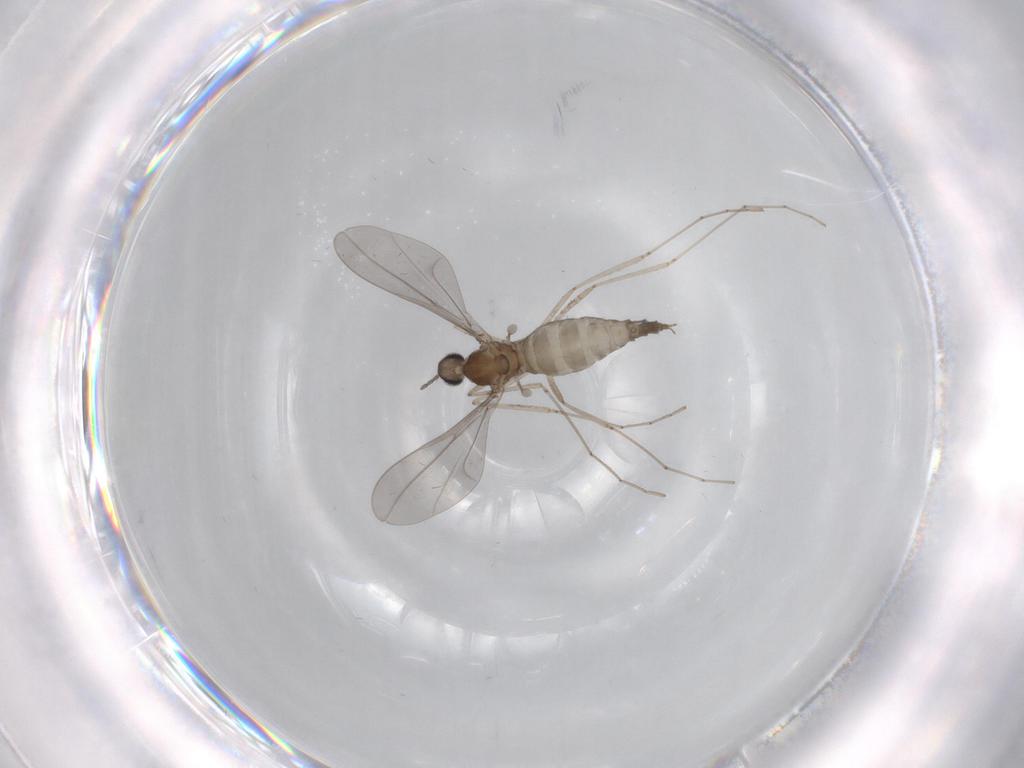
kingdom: Animalia
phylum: Arthropoda
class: Insecta
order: Diptera
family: Cecidomyiidae
